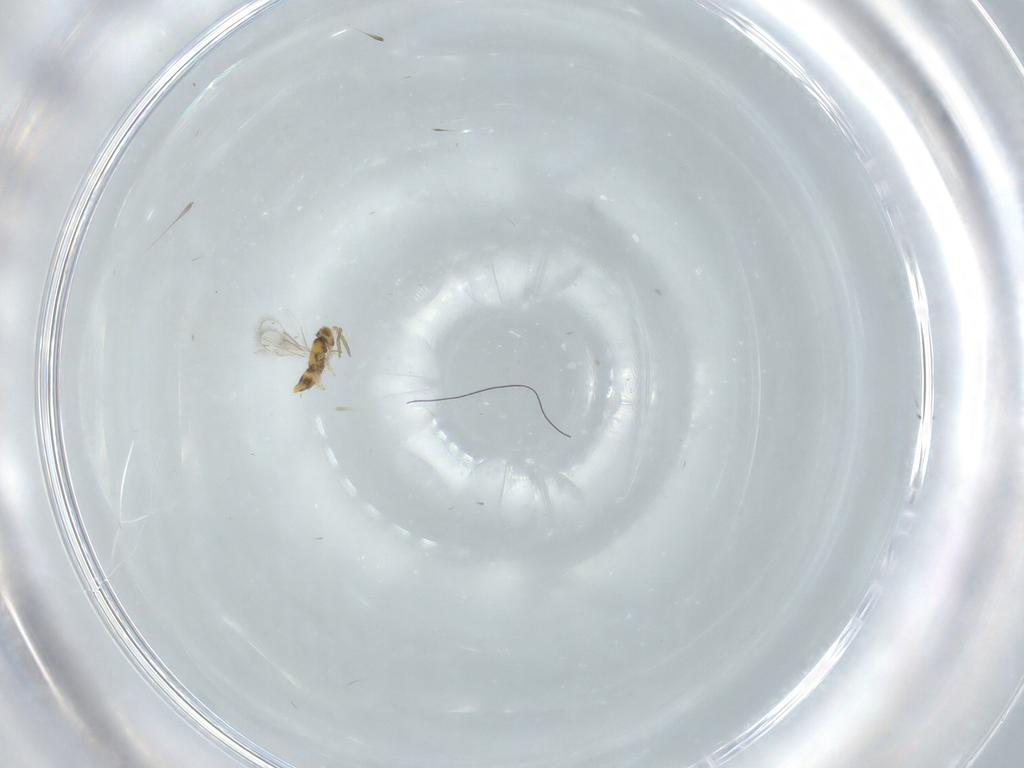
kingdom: Animalia
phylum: Arthropoda
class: Insecta
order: Hymenoptera
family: Aphelinidae
